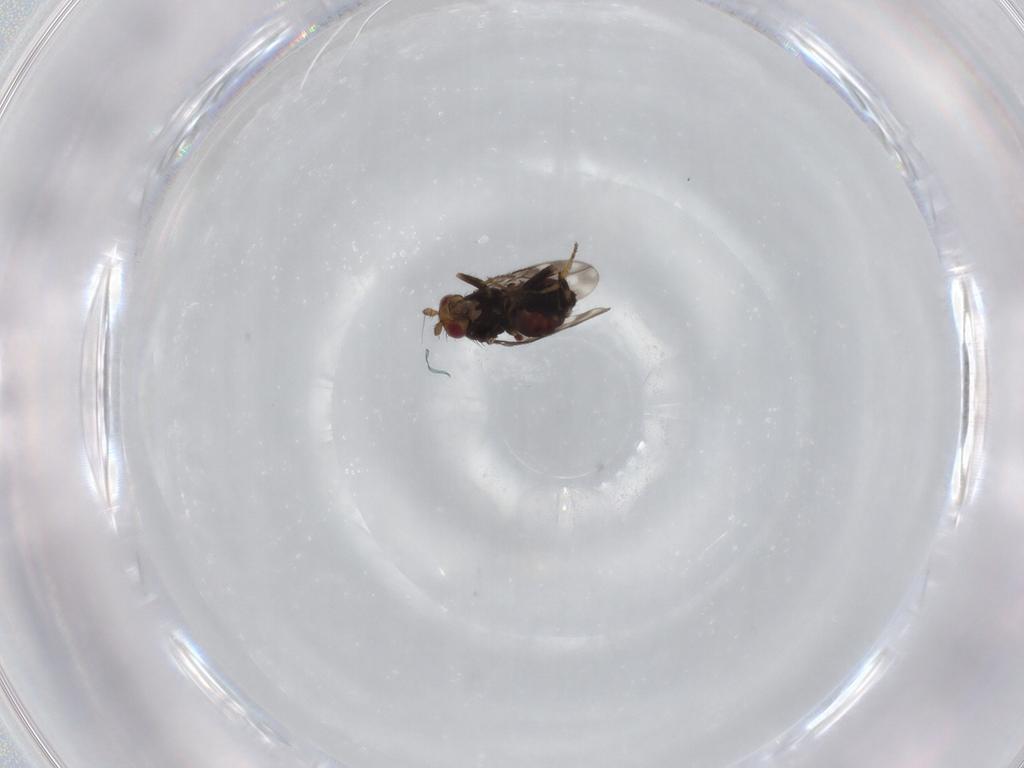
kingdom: Animalia
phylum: Arthropoda
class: Insecta
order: Diptera
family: Sphaeroceridae
